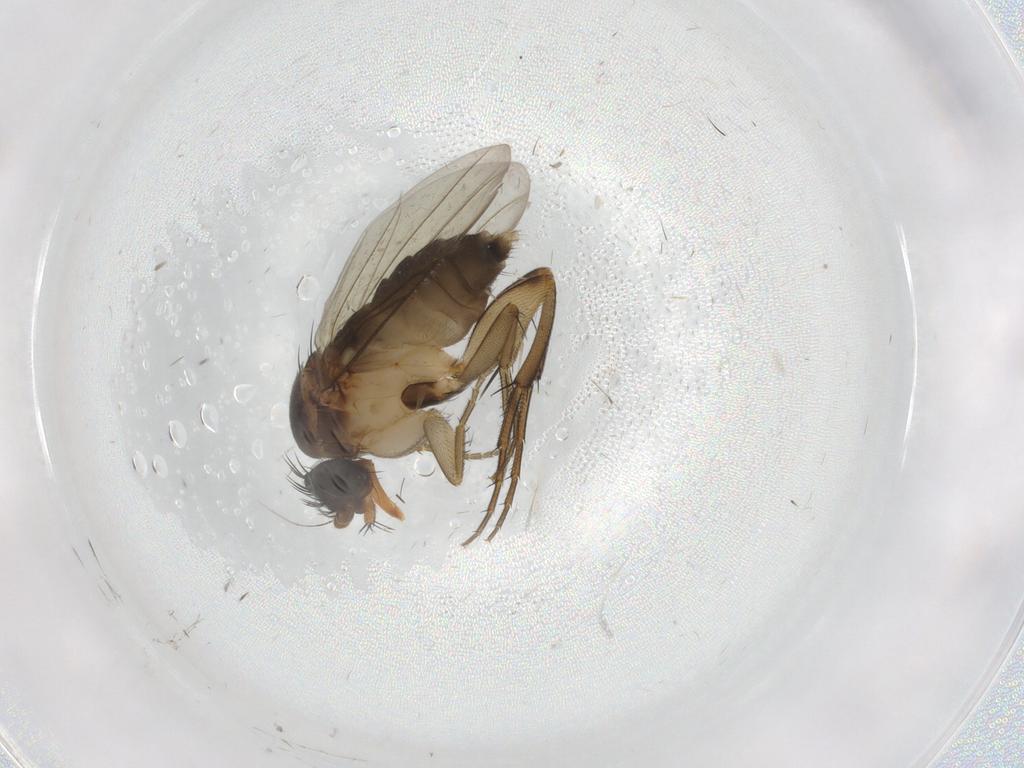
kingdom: Animalia
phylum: Arthropoda
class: Insecta
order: Diptera
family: Phoridae
